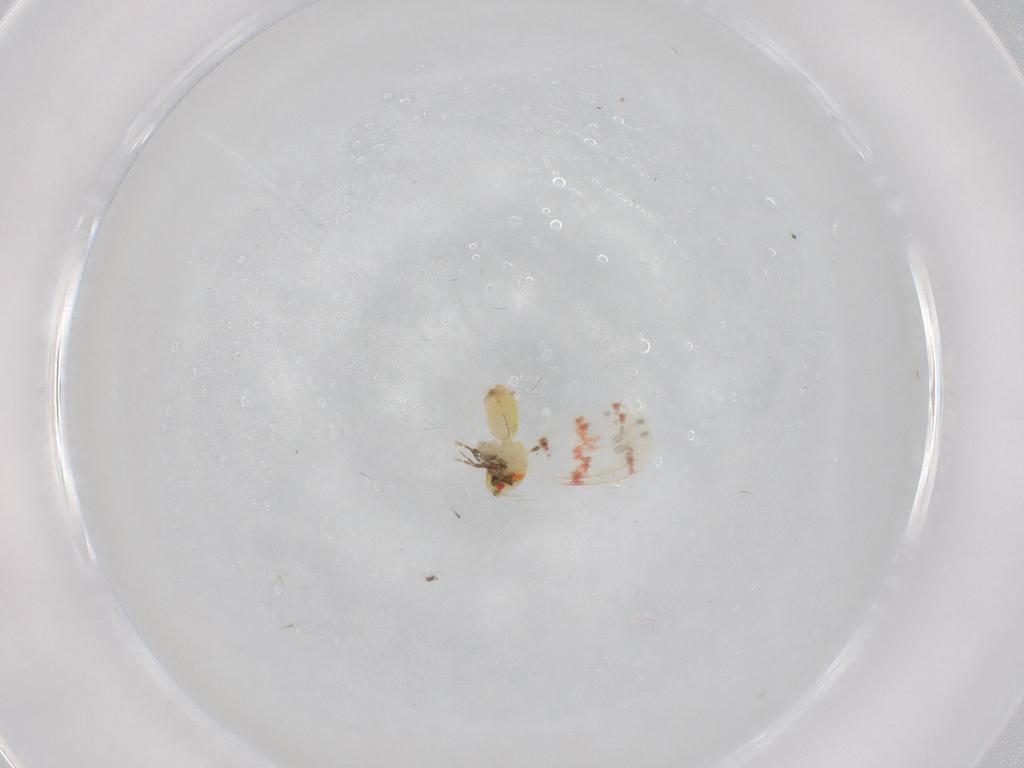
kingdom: Animalia
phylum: Arthropoda
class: Insecta
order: Hemiptera
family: Aleyrodidae
